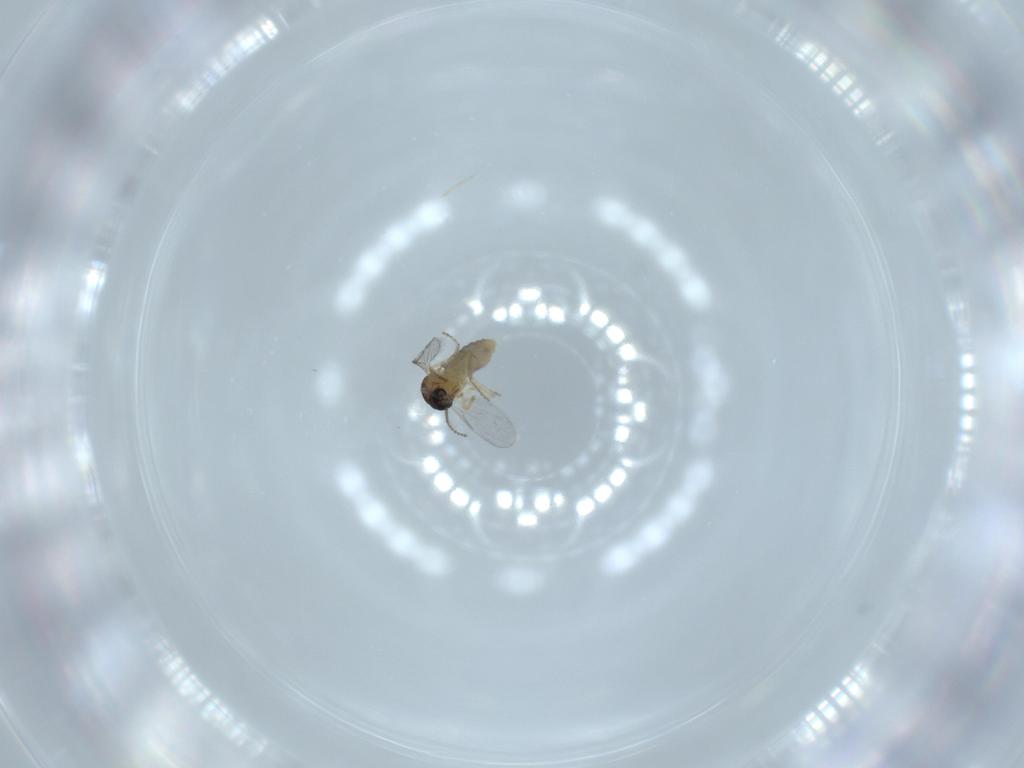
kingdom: Animalia
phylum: Arthropoda
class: Insecta
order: Diptera
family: Ceratopogonidae
